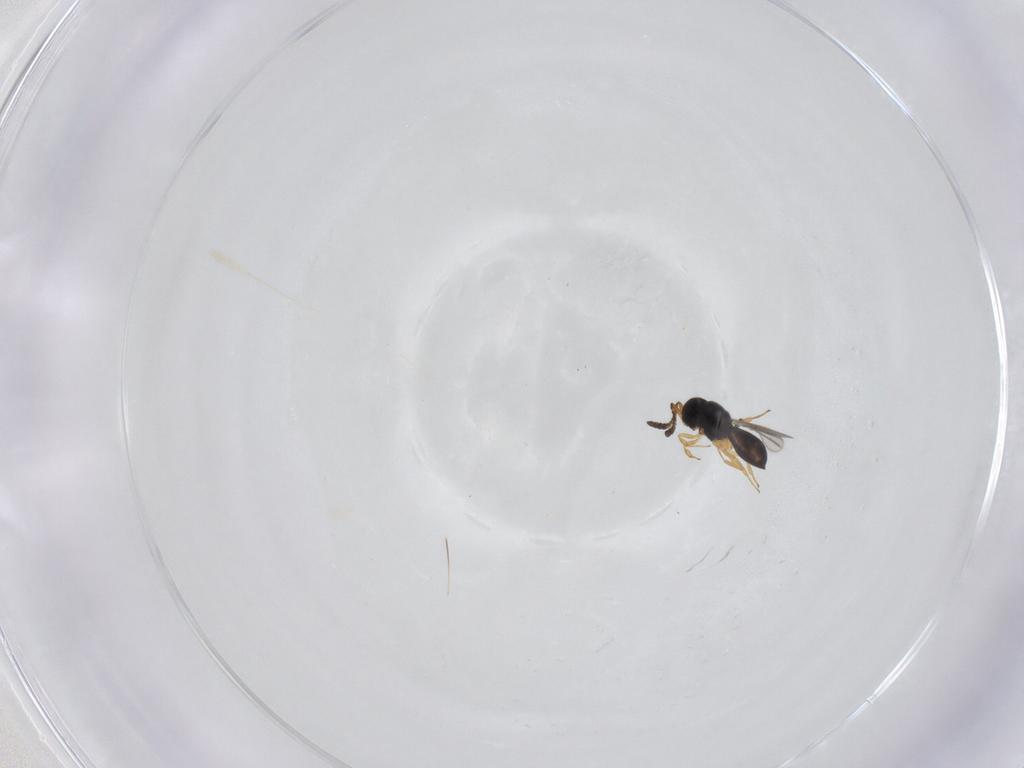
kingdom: Animalia
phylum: Arthropoda
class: Insecta
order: Hymenoptera
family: Scelionidae
